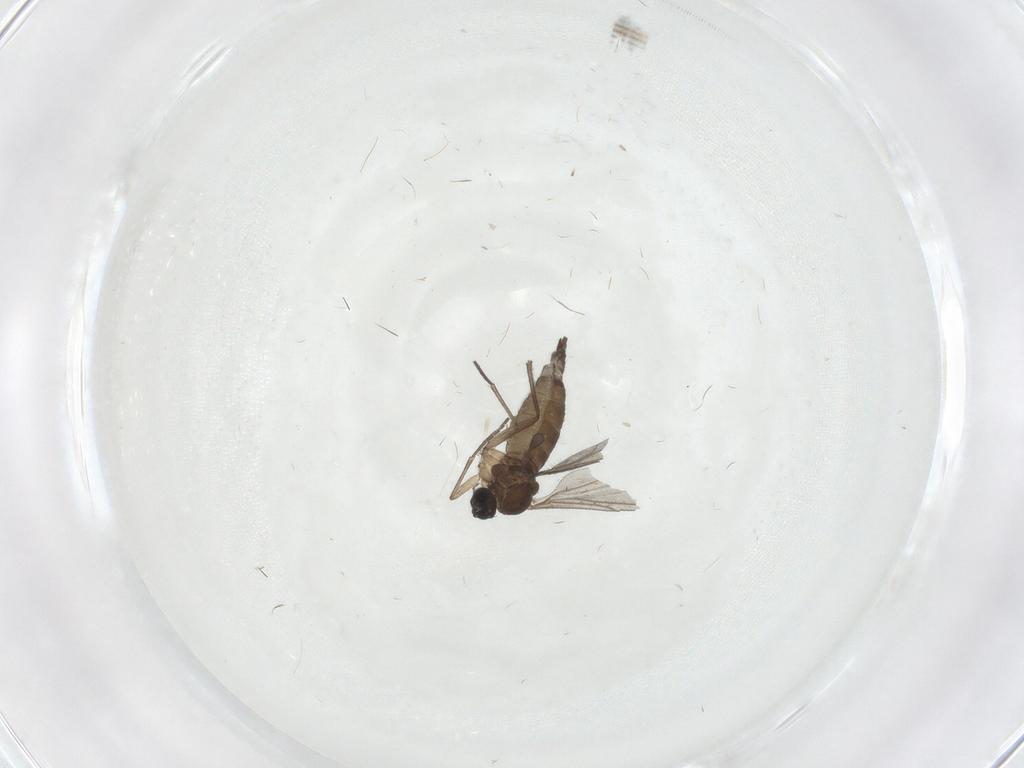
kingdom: Animalia
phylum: Arthropoda
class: Insecta
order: Diptera
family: Sciaridae
